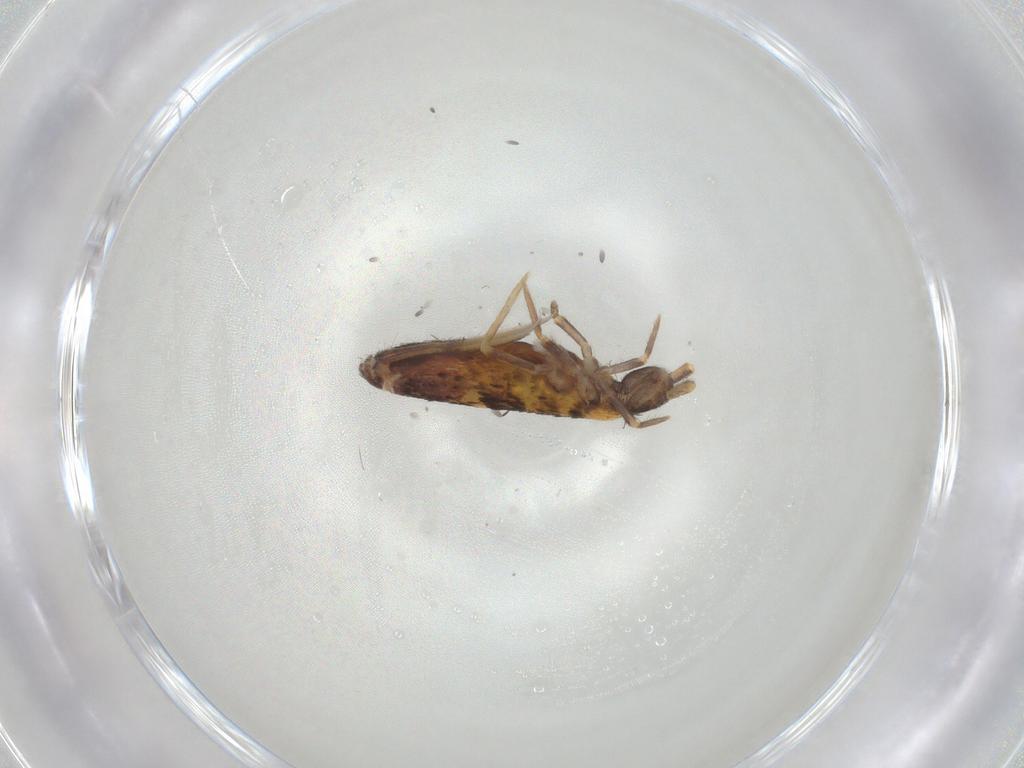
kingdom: Animalia
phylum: Arthropoda
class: Collembola
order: Entomobryomorpha
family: Entomobryidae
